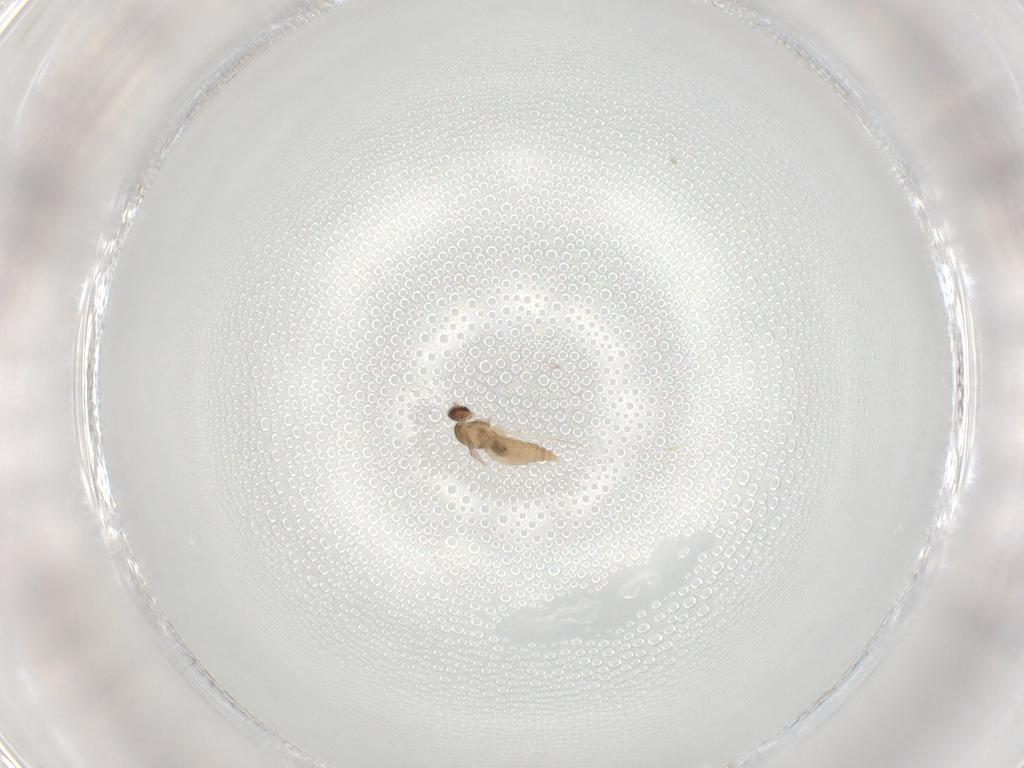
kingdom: Animalia
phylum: Arthropoda
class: Insecta
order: Diptera
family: Cecidomyiidae
